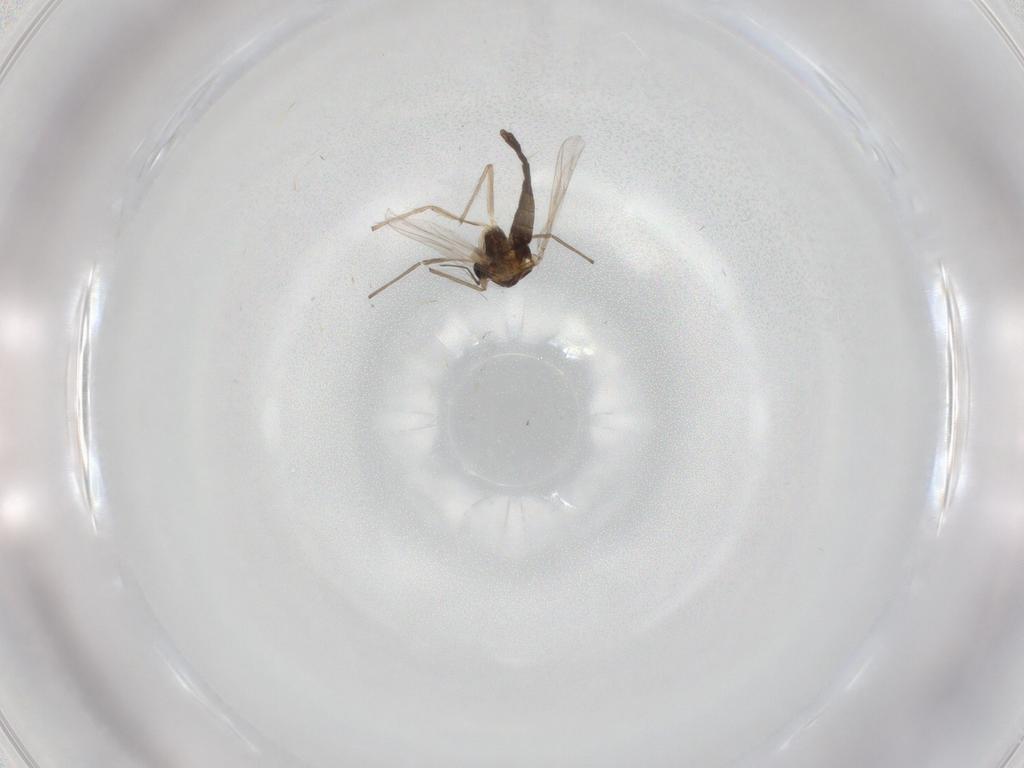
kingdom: Animalia
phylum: Arthropoda
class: Insecta
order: Diptera
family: Chironomidae
